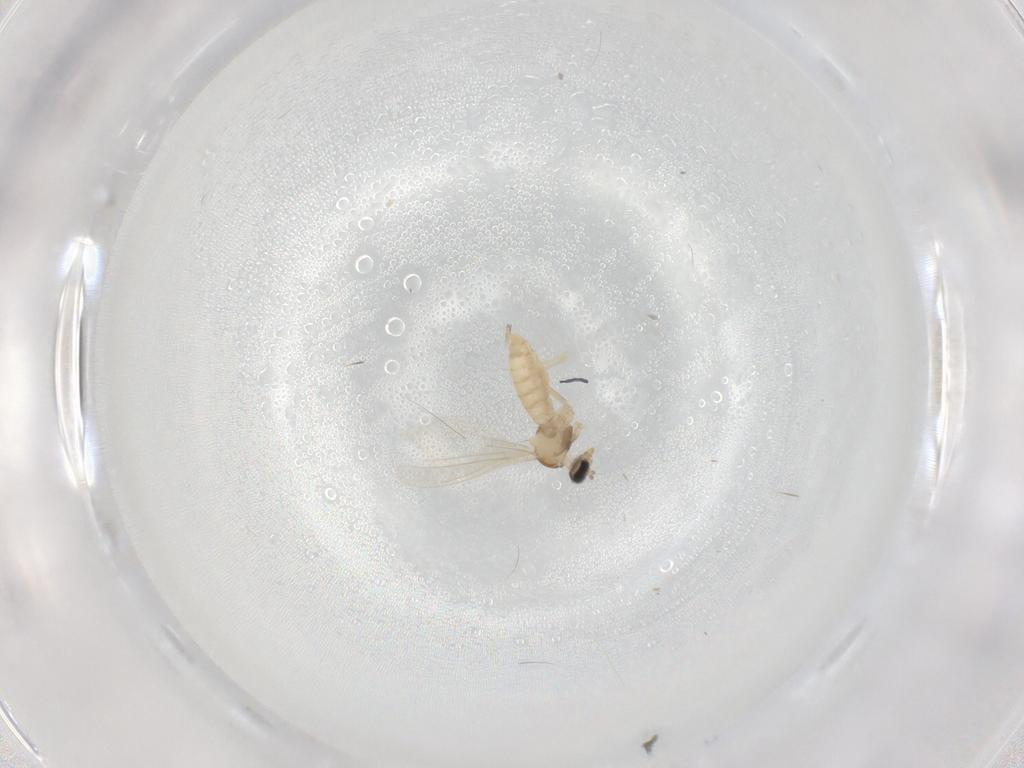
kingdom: Animalia
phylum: Arthropoda
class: Insecta
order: Diptera
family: Cecidomyiidae
